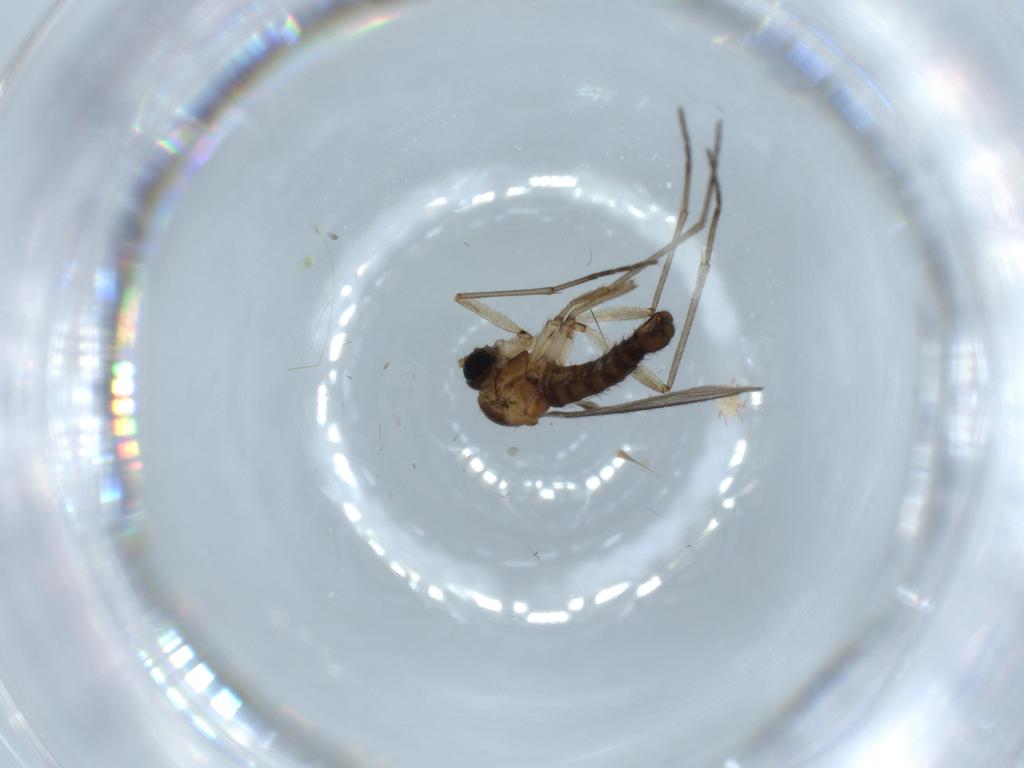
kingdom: Animalia
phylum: Arthropoda
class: Insecta
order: Diptera
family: Sciaridae
